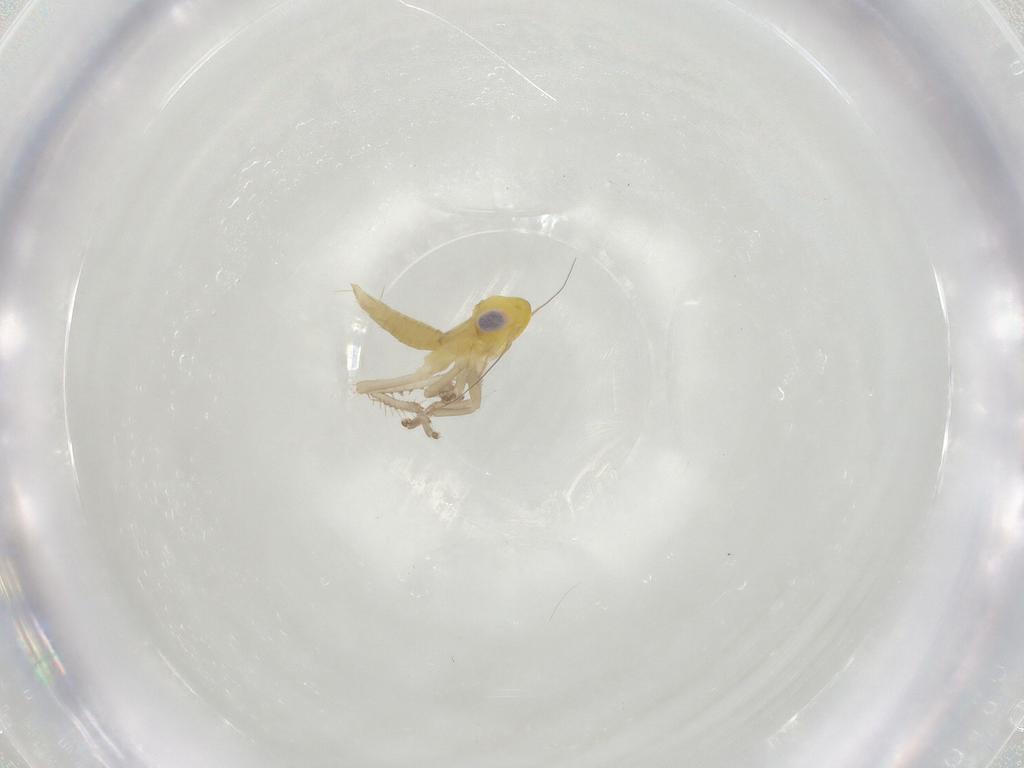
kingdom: Animalia
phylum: Arthropoda
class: Insecta
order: Hemiptera
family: Cicadellidae
